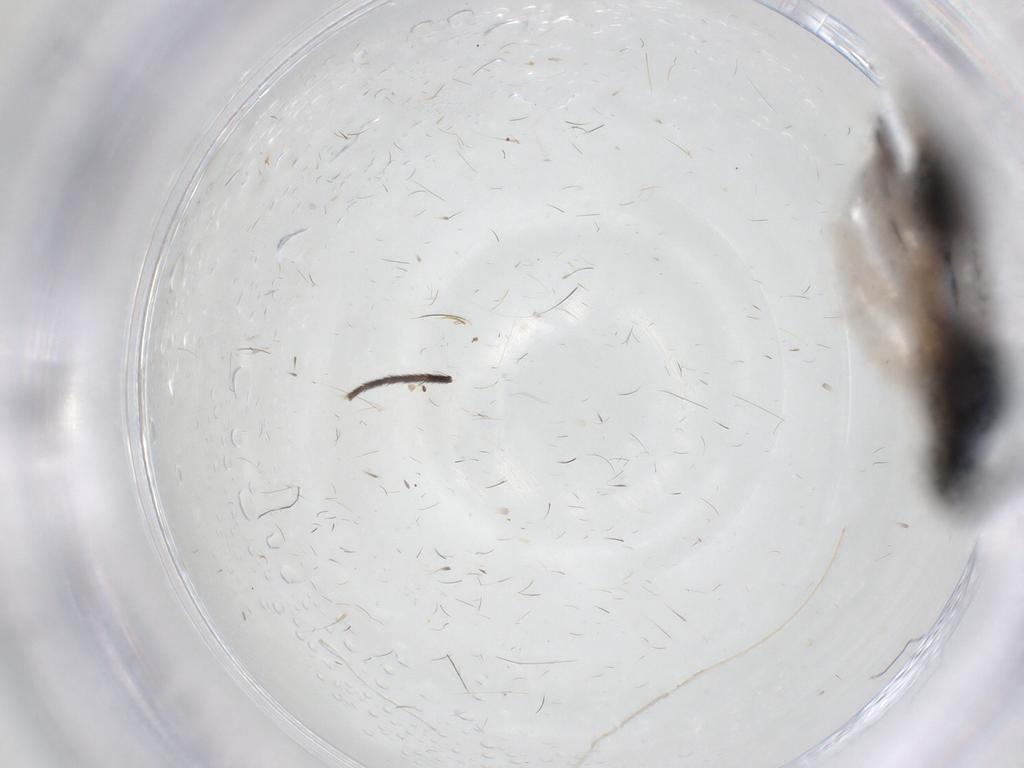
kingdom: Animalia
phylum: Arthropoda
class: Insecta
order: Diptera
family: Mycetophilidae
